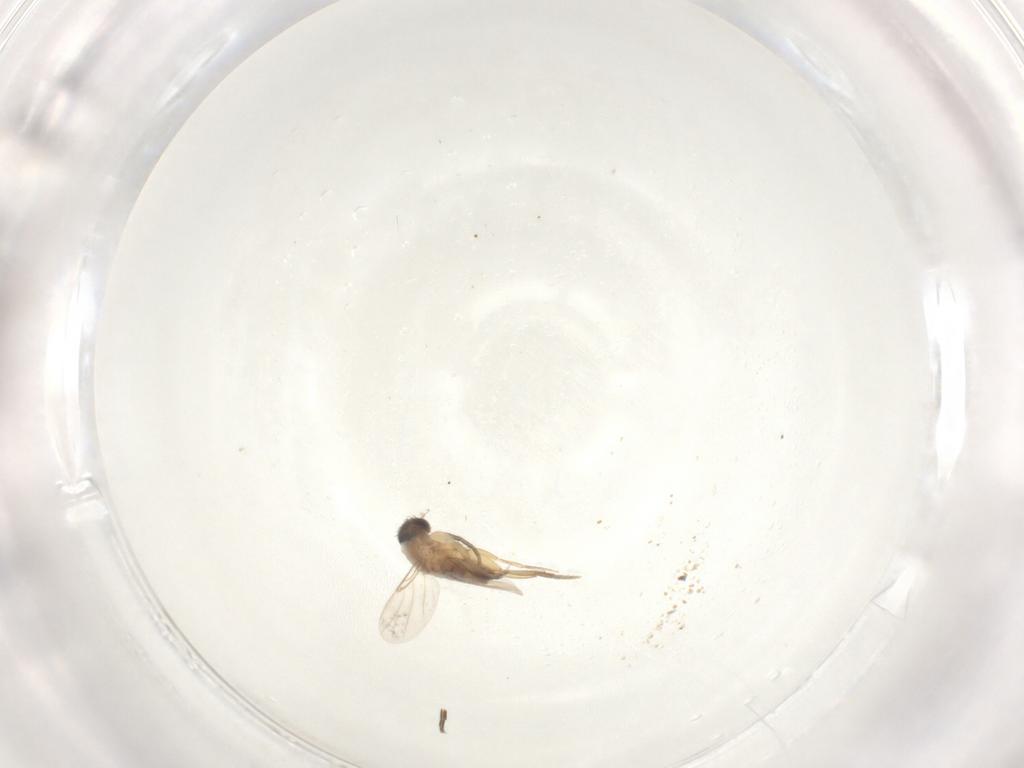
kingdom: Animalia
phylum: Arthropoda
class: Insecta
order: Diptera
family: Phoridae
